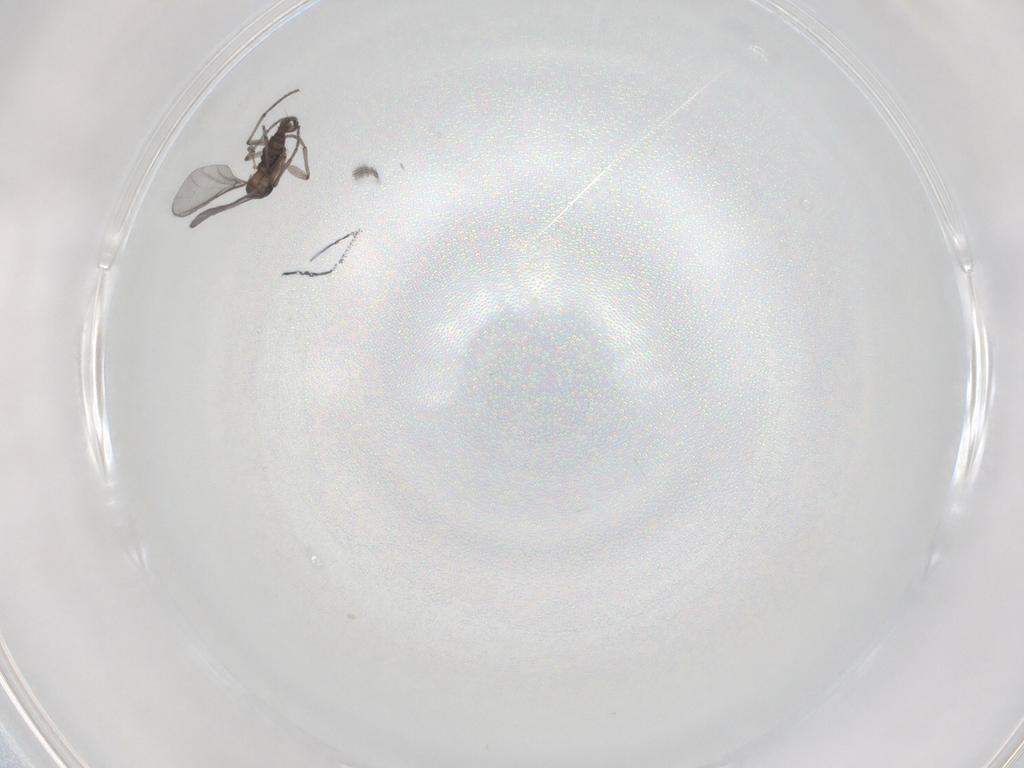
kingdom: Animalia
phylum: Arthropoda
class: Insecta
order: Diptera
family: Sciaridae
